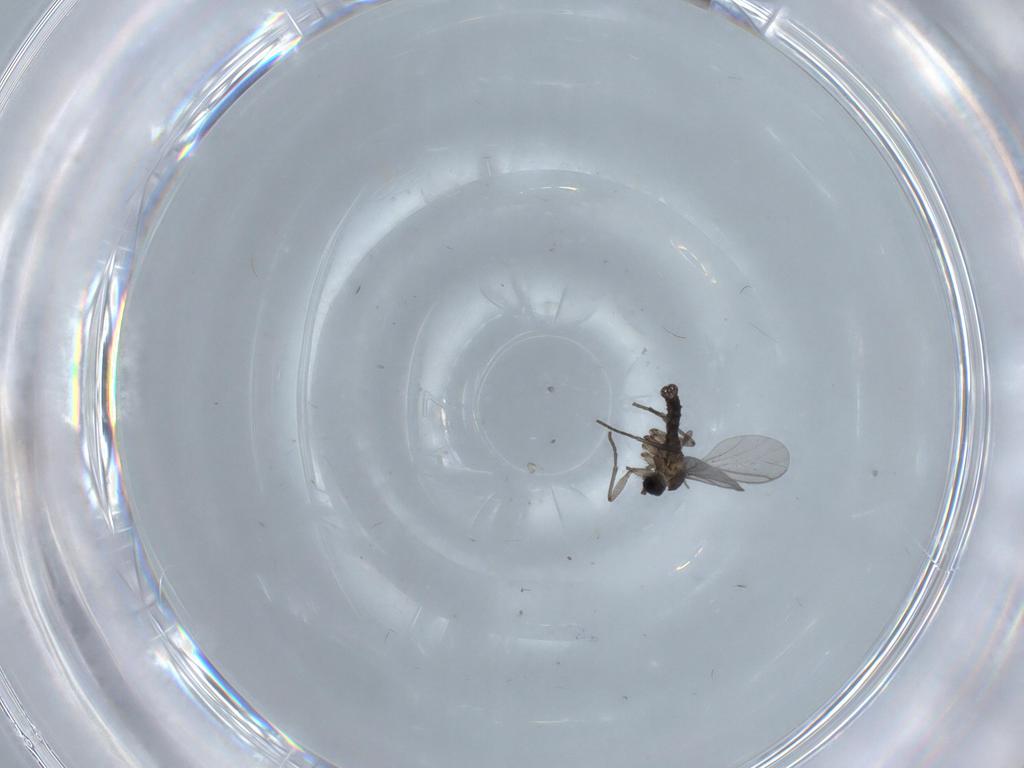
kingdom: Animalia
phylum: Arthropoda
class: Insecta
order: Diptera
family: Cecidomyiidae
